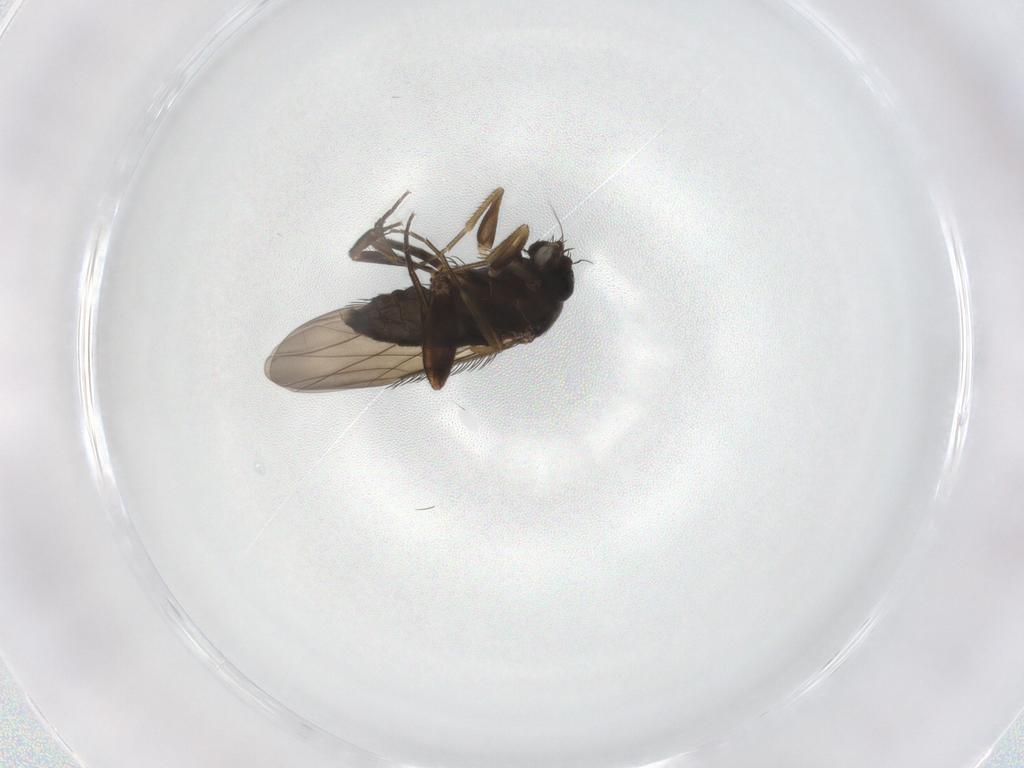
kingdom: Animalia
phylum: Arthropoda
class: Insecta
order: Diptera
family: Phoridae
